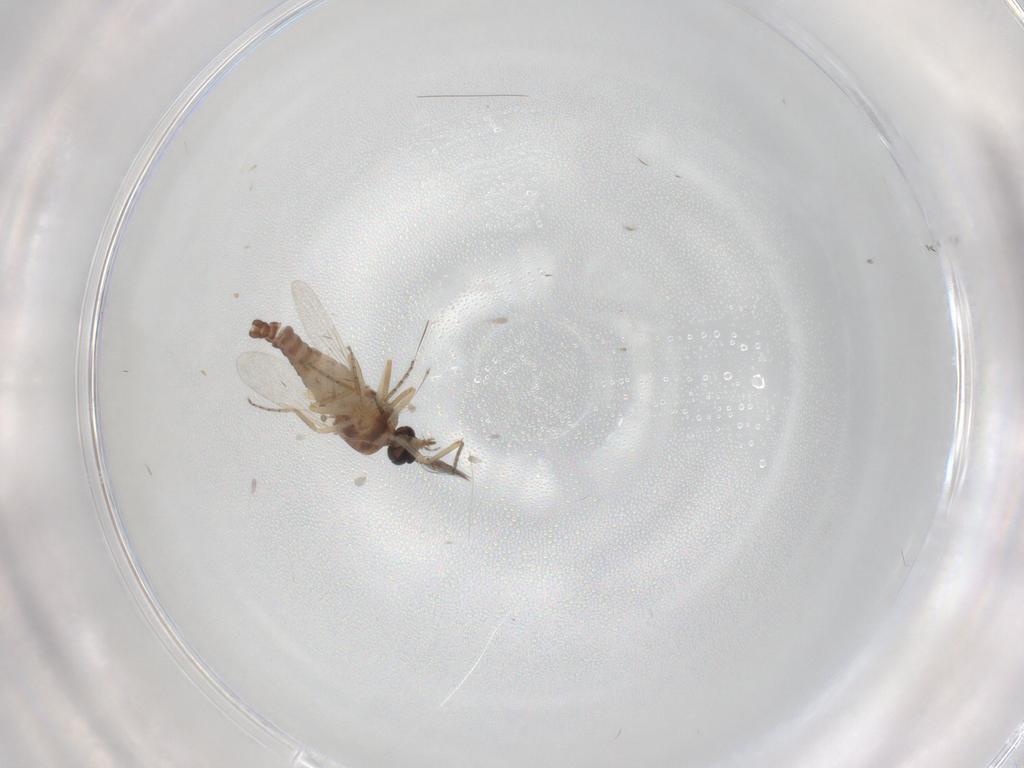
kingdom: Animalia
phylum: Arthropoda
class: Insecta
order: Diptera
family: Ceratopogonidae
